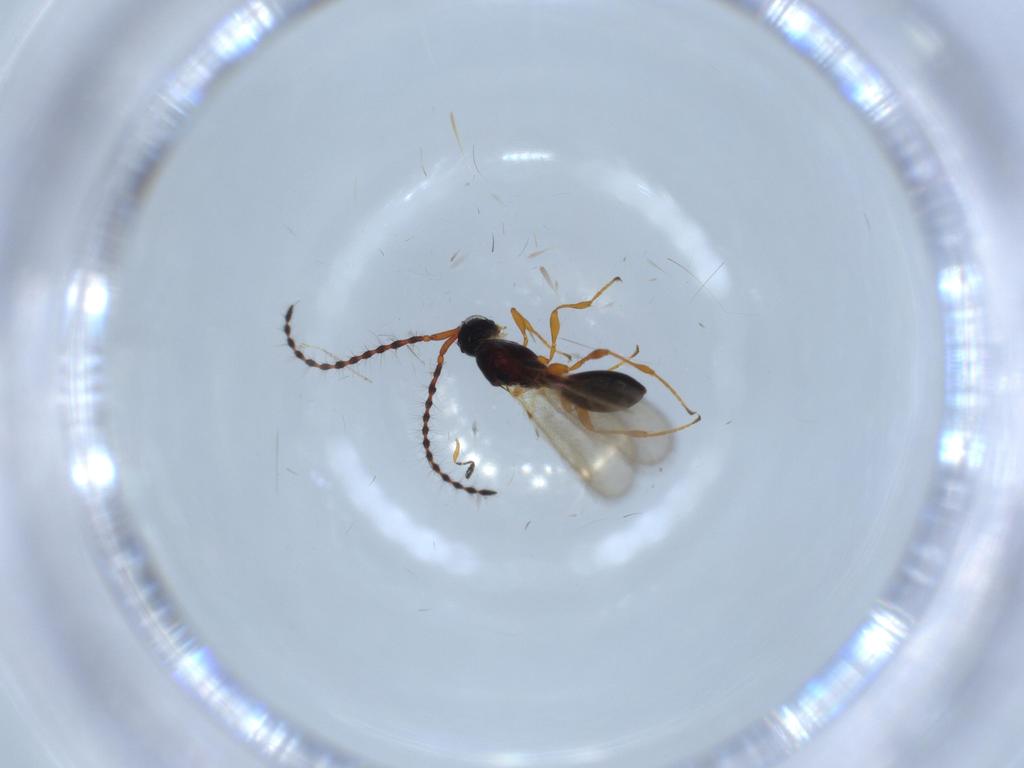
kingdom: Animalia
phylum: Arthropoda
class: Insecta
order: Hymenoptera
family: Platygastridae
